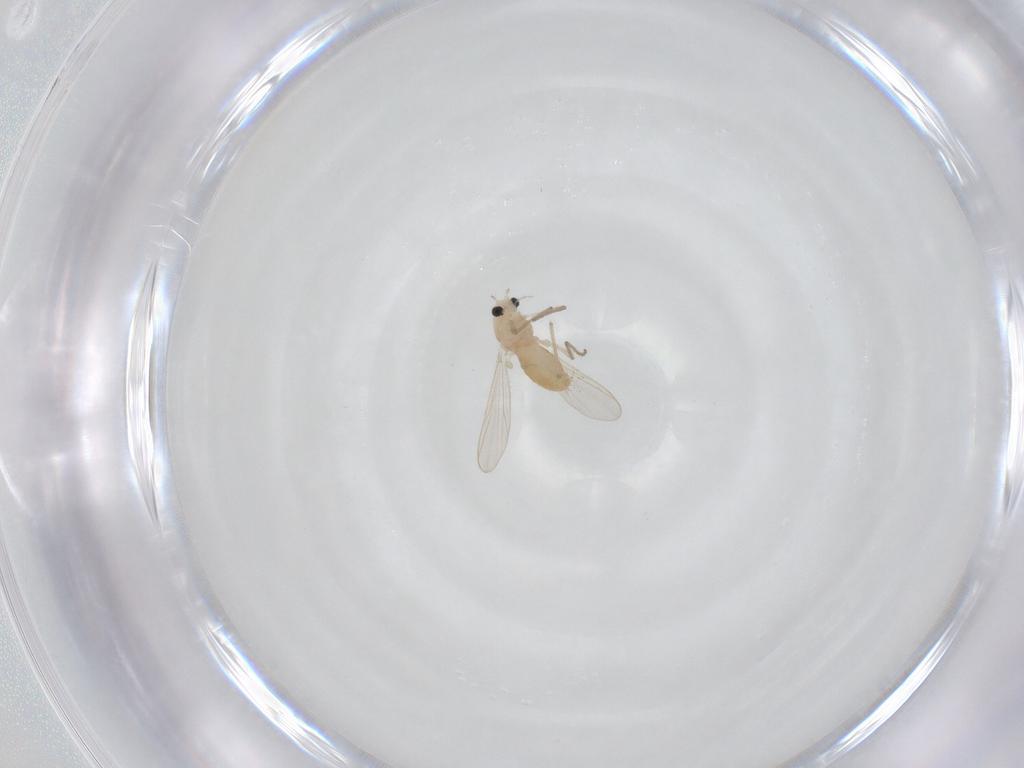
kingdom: Animalia
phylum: Arthropoda
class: Insecta
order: Diptera
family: Chironomidae
